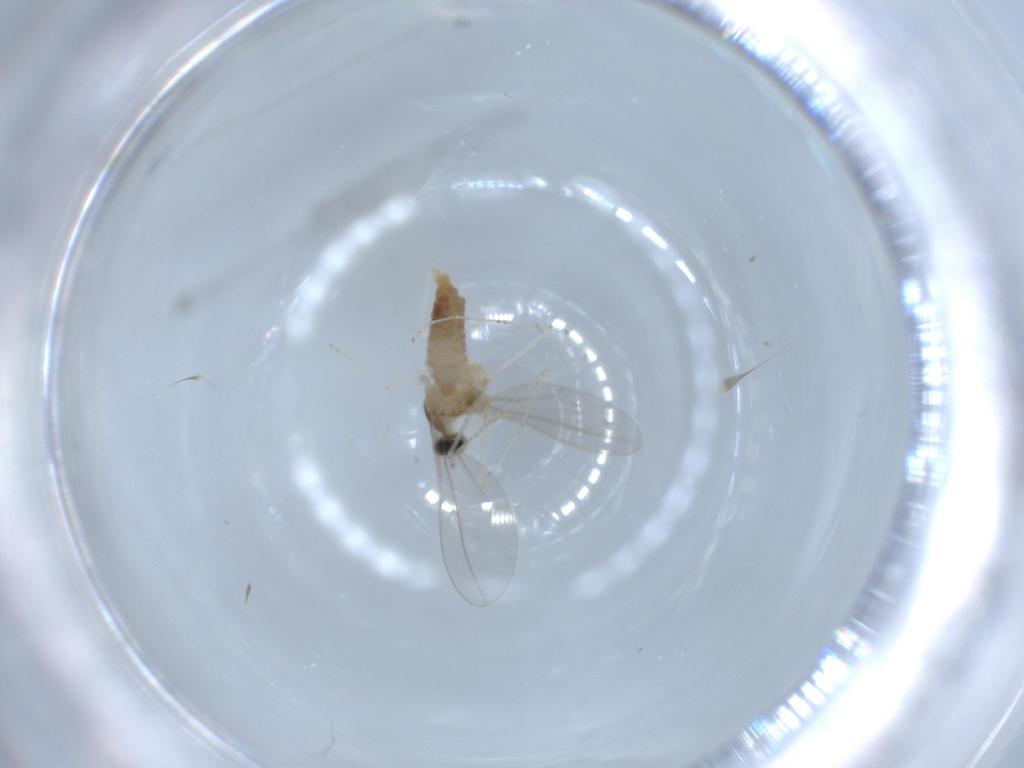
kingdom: Animalia
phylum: Arthropoda
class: Insecta
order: Diptera
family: Cecidomyiidae
